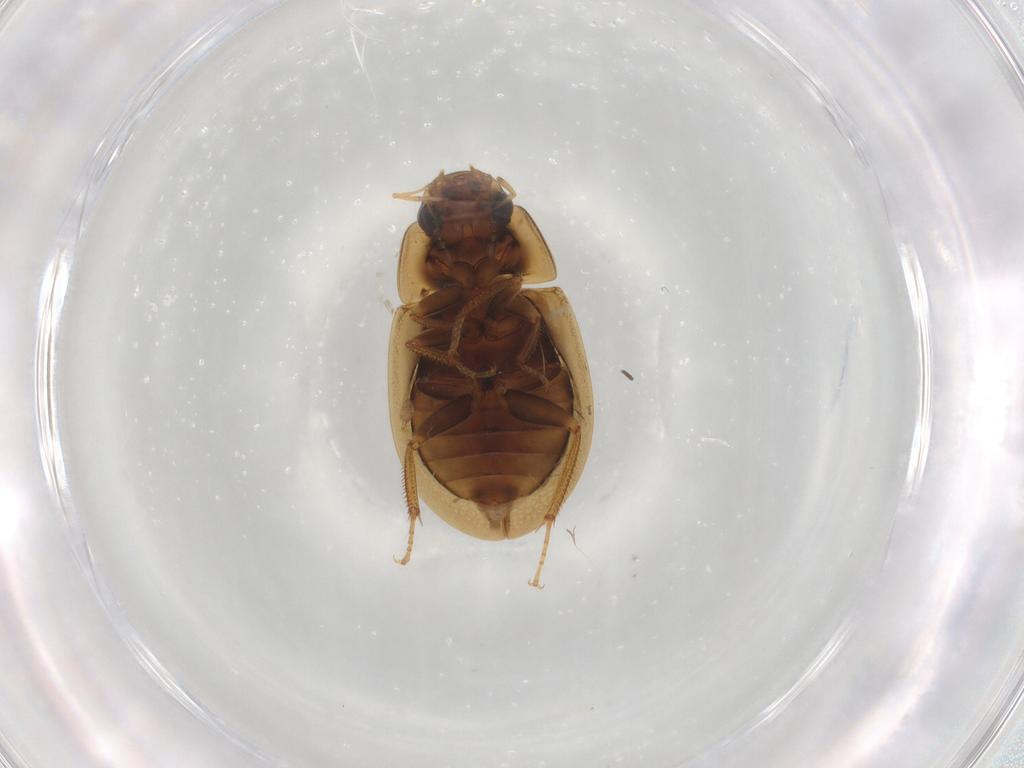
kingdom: Animalia
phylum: Arthropoda
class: Insecta
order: Coleoptera
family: Hydrophilidae
